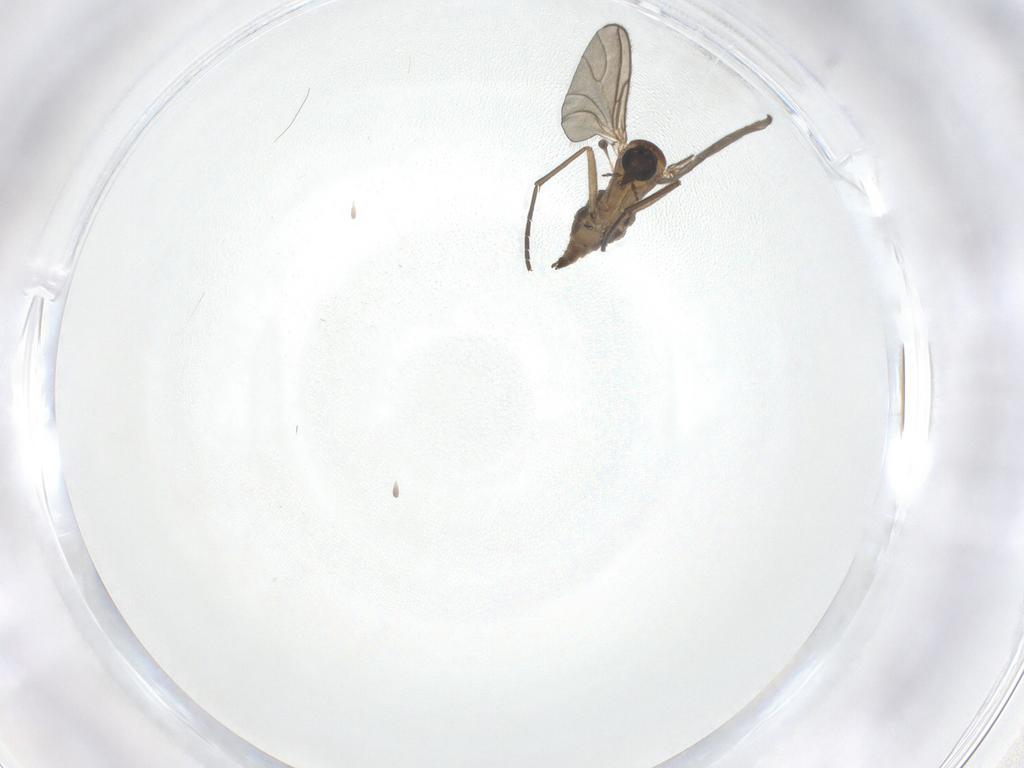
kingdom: Animalia
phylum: Arthropoda
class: Insecta
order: Diptera
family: Sciaridae
